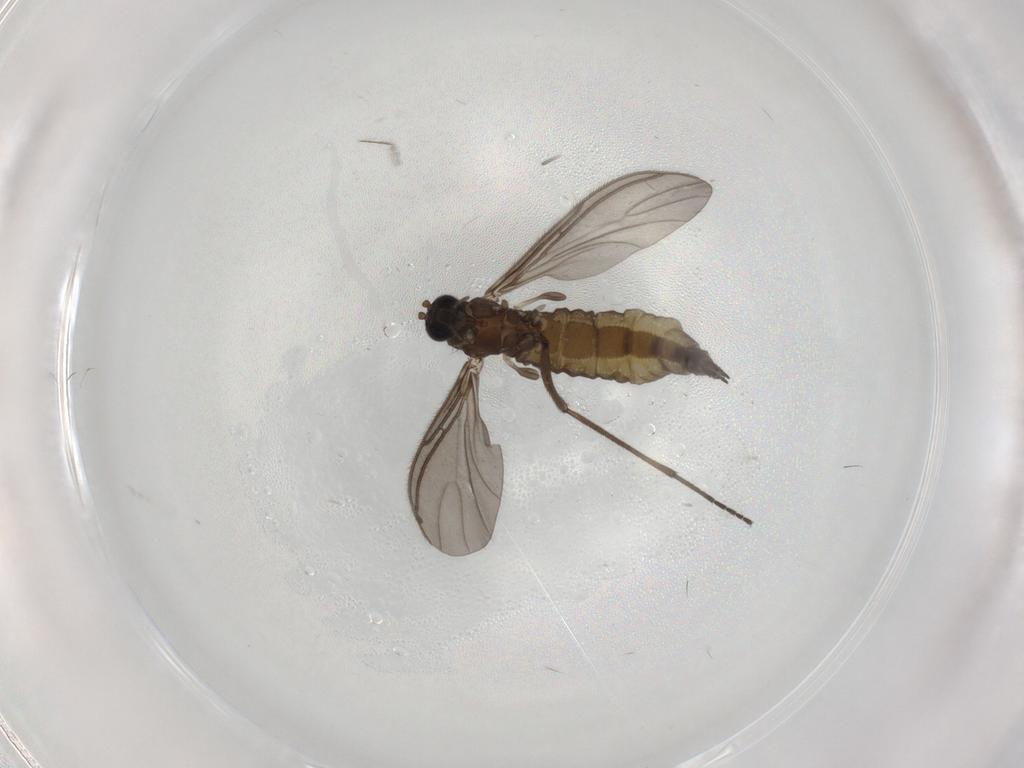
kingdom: Animalia
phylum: Arthropoda
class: Insecta
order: Diptera
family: Sciaridae
